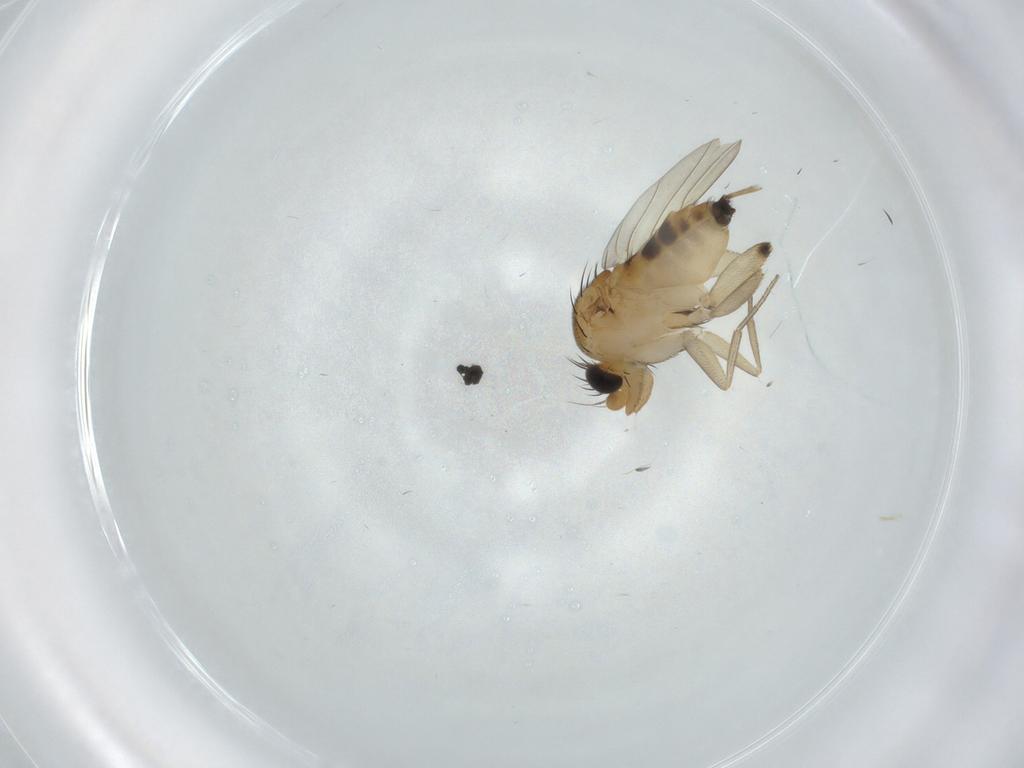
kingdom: Animalia
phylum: Arthropoda
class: Insecta
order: Diptera
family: Phoridae
